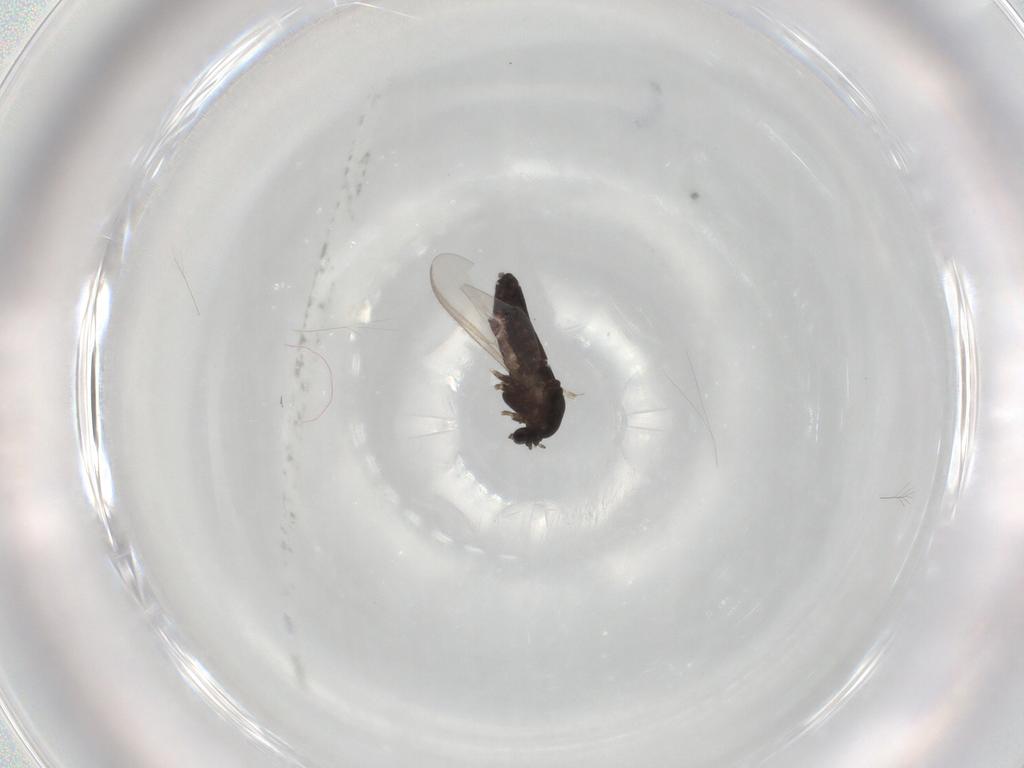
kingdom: Animalia
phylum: Arthropoda
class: Insecta
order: Diptera
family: Chironomidae
